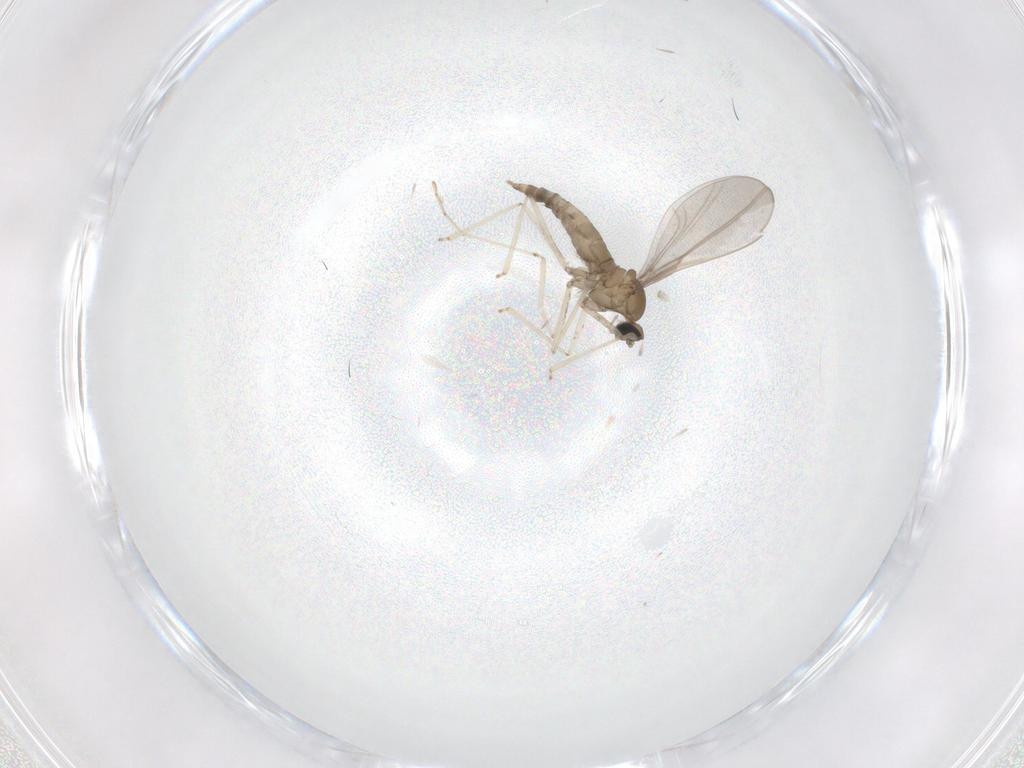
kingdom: Animalia
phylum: Arthropoda
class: Insecta
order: Diptera
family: Cecidomyiidae
